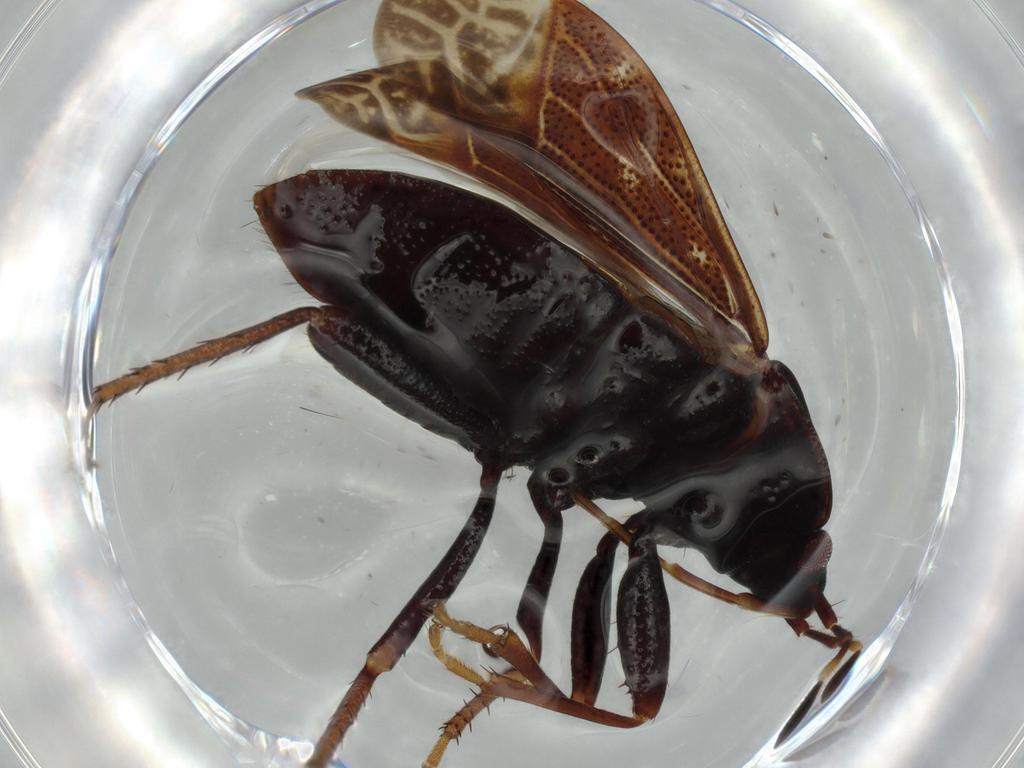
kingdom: Animalia
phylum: Arthropoda
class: Insecta
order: Hemiptera
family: Rhyparochromidae
